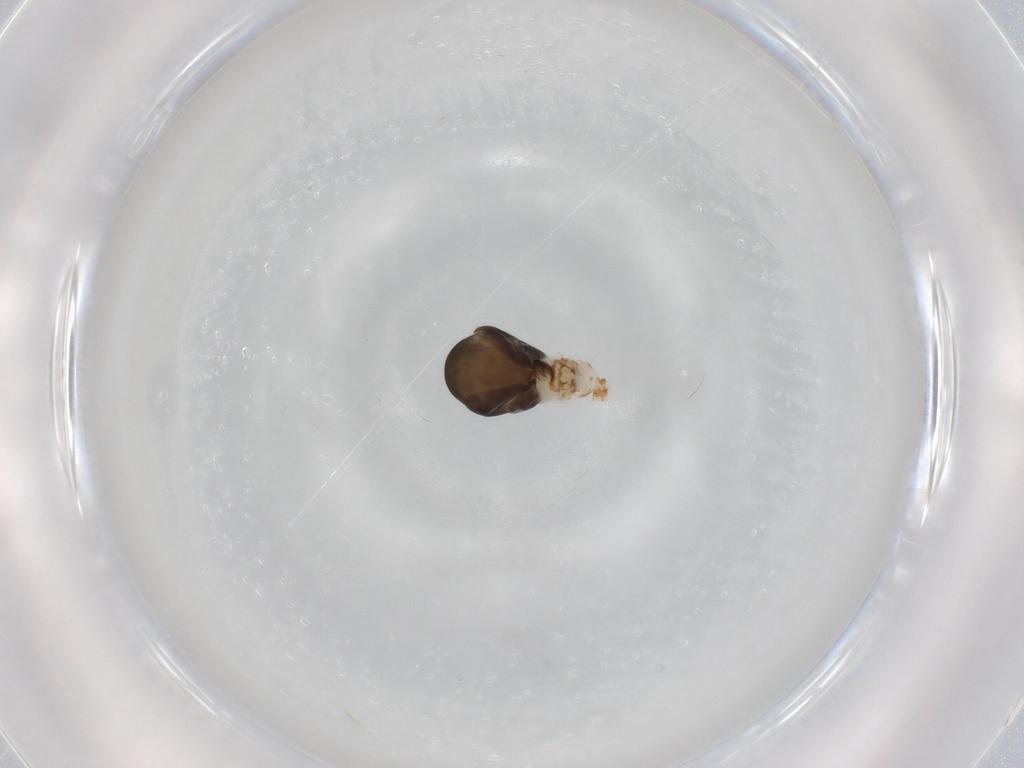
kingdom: Animalia
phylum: Arthropoda
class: Insecta
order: Hymenoptera
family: Dryinidae
